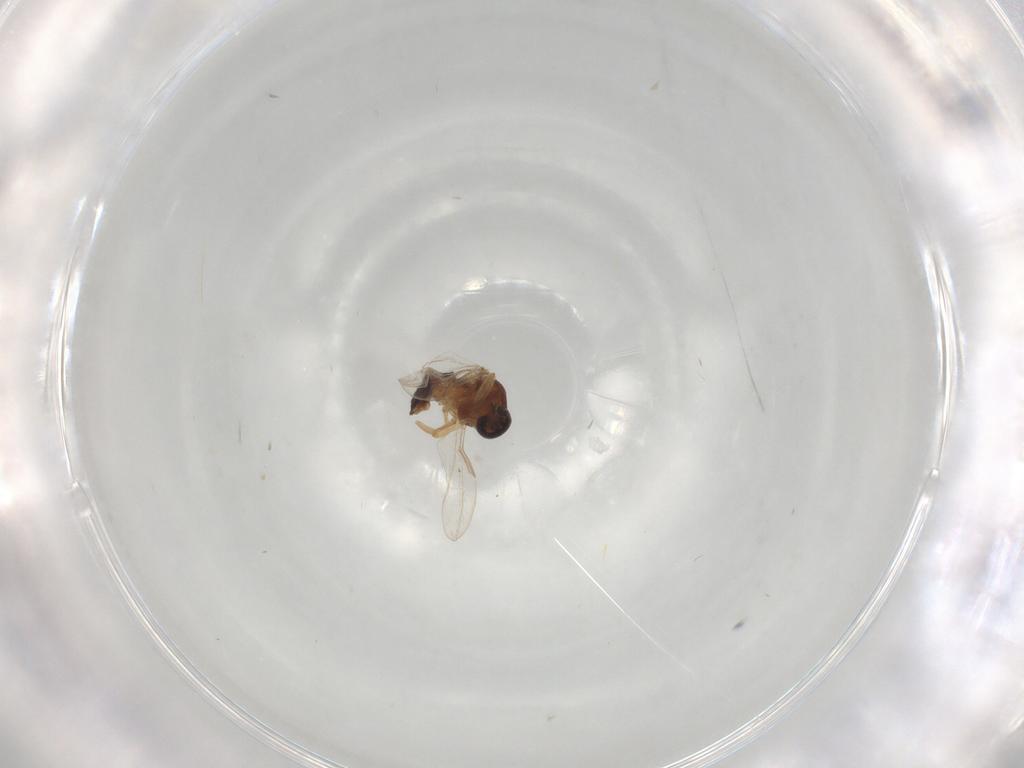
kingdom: Animalia
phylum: Arthropoda
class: Insecta
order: Diptera
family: Ceratopogonidae
